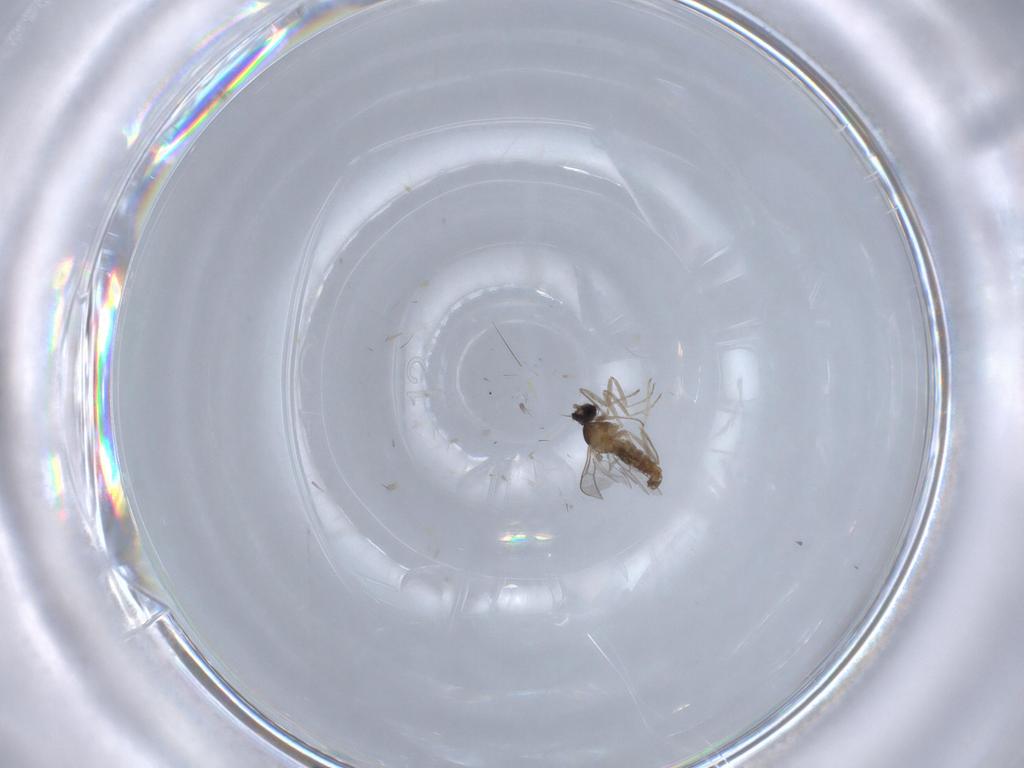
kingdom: Animalia
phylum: Arthropoda
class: Insecta
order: Diptera
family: Cecidomyiidae
